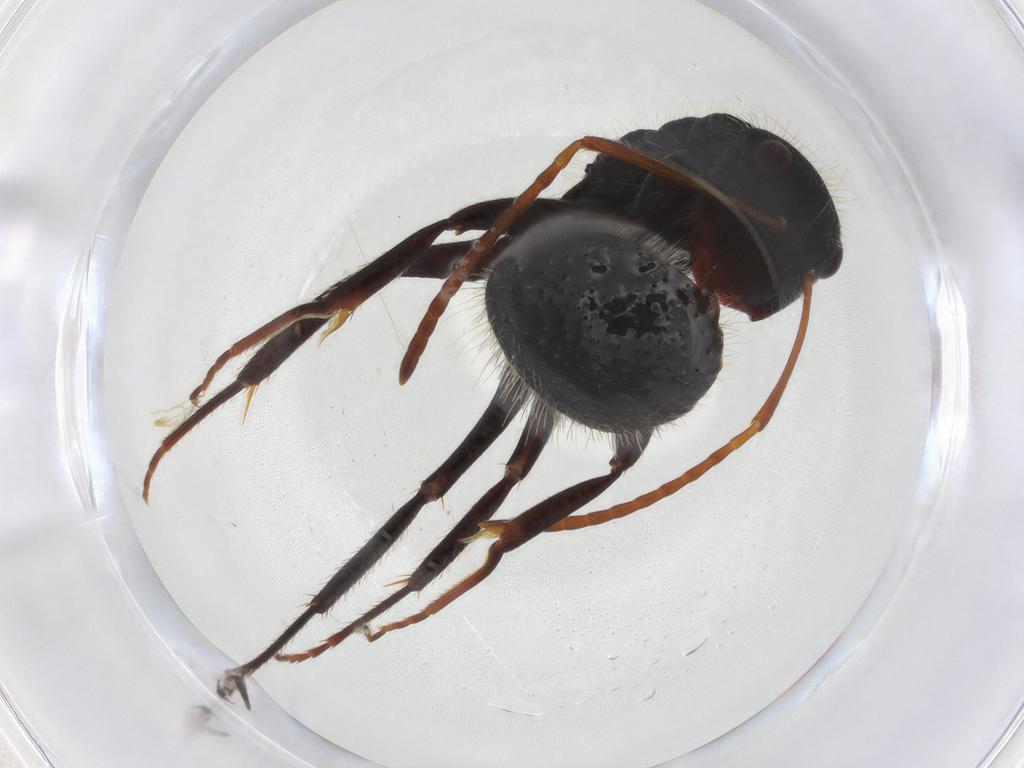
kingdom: Animalia
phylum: Arthropoda
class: Insecta
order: Hymenoptera
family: Formicidae
